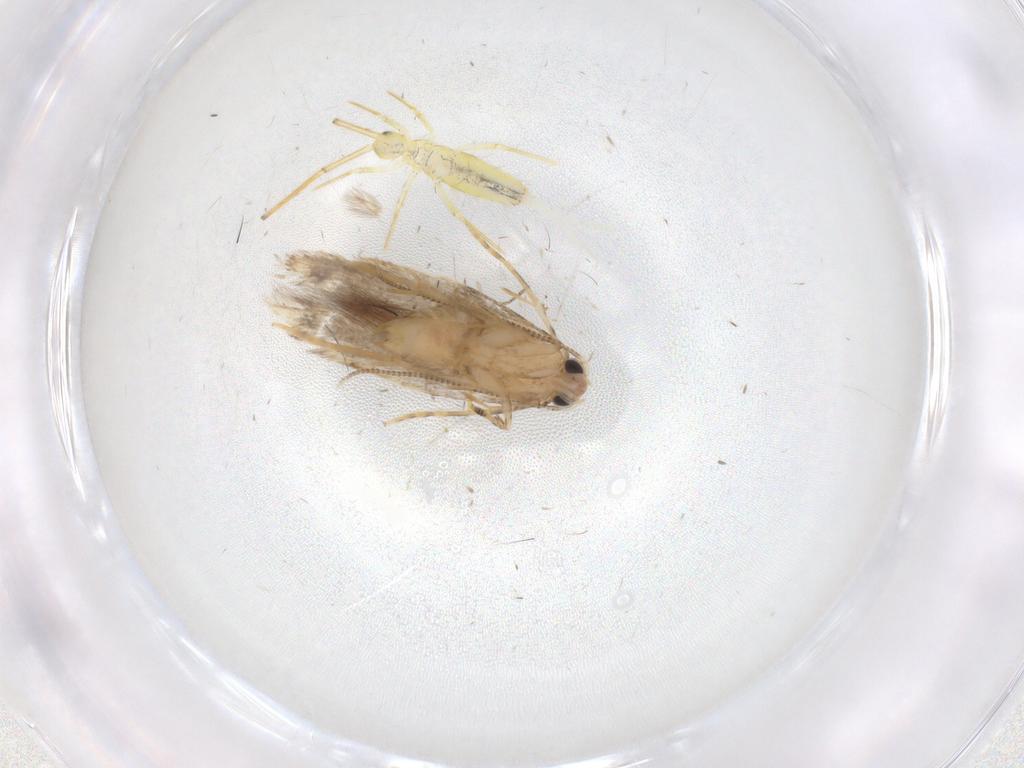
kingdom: Animalia
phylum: Arthropoda
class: Insecta
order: Lepidoptera
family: Tineidae
